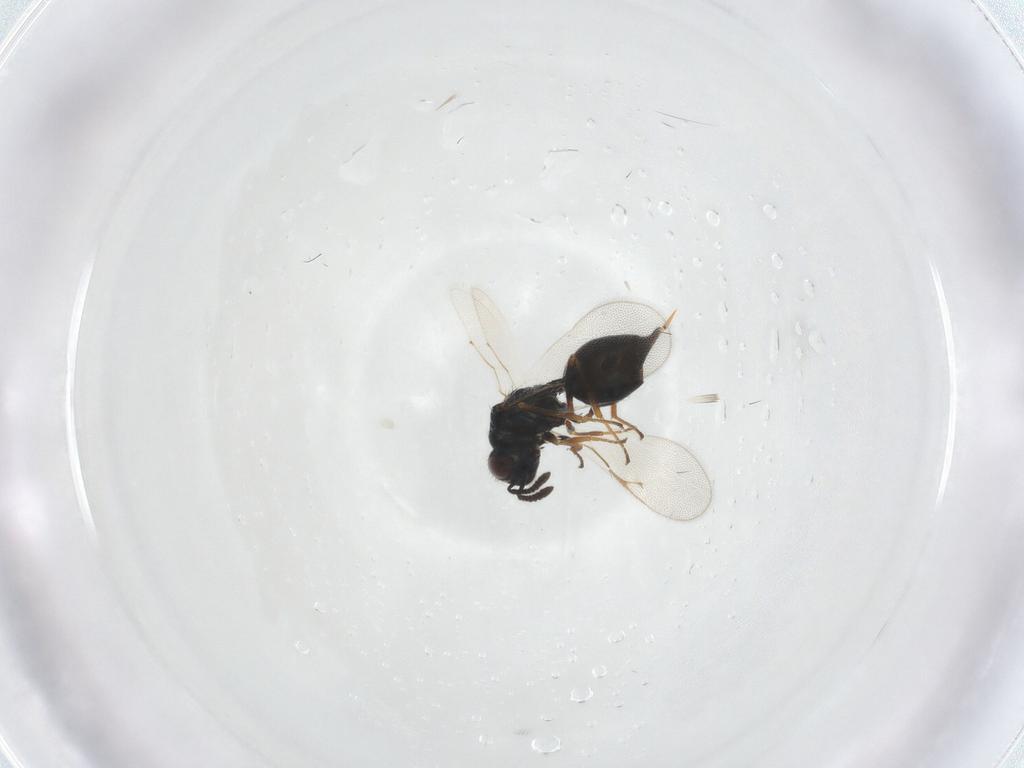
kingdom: Animalia
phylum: Arthropoda
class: Insecta
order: Hymenoptera
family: Chalcidoidea_incertae_sedis
